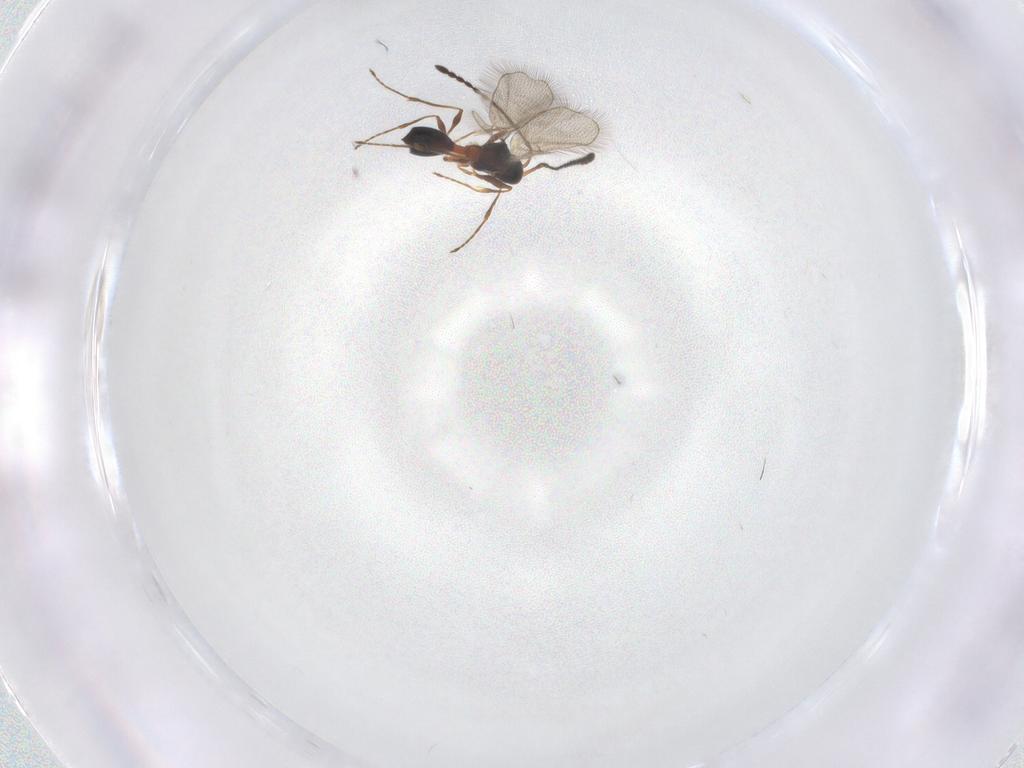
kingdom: Animalia
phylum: Arthropoda
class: Insecta
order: Hymenoptera
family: Diapriidae
